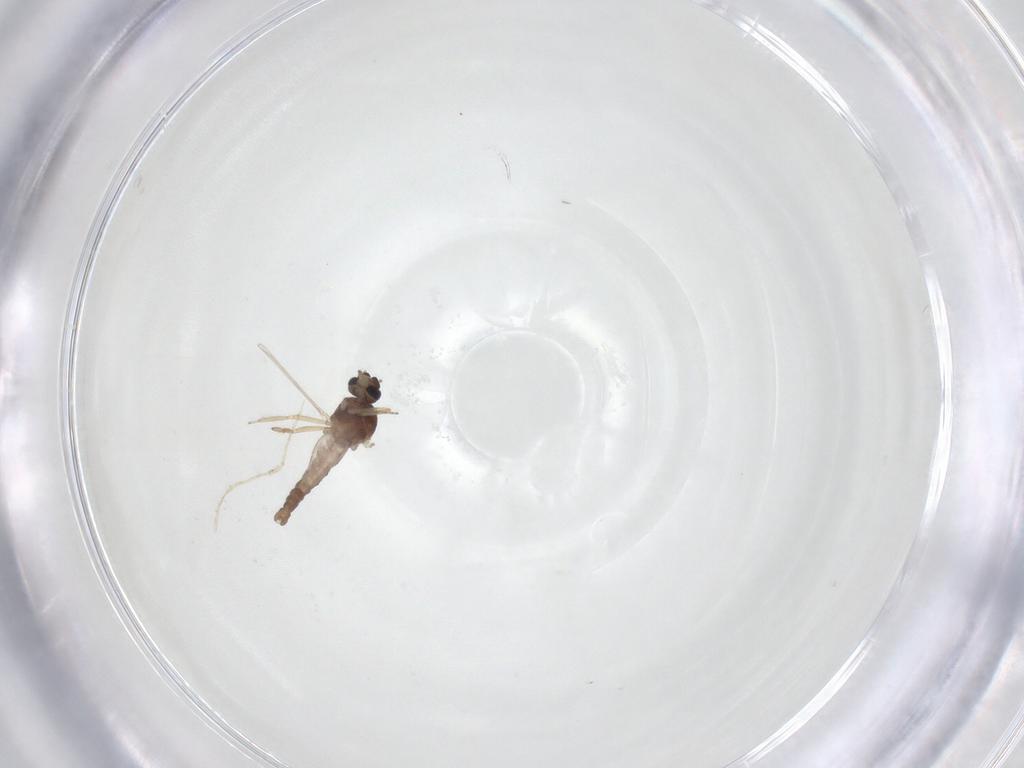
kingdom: Animalia
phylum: Arthropoda
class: Insecta
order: Diptera
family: Ceratopogonidae
